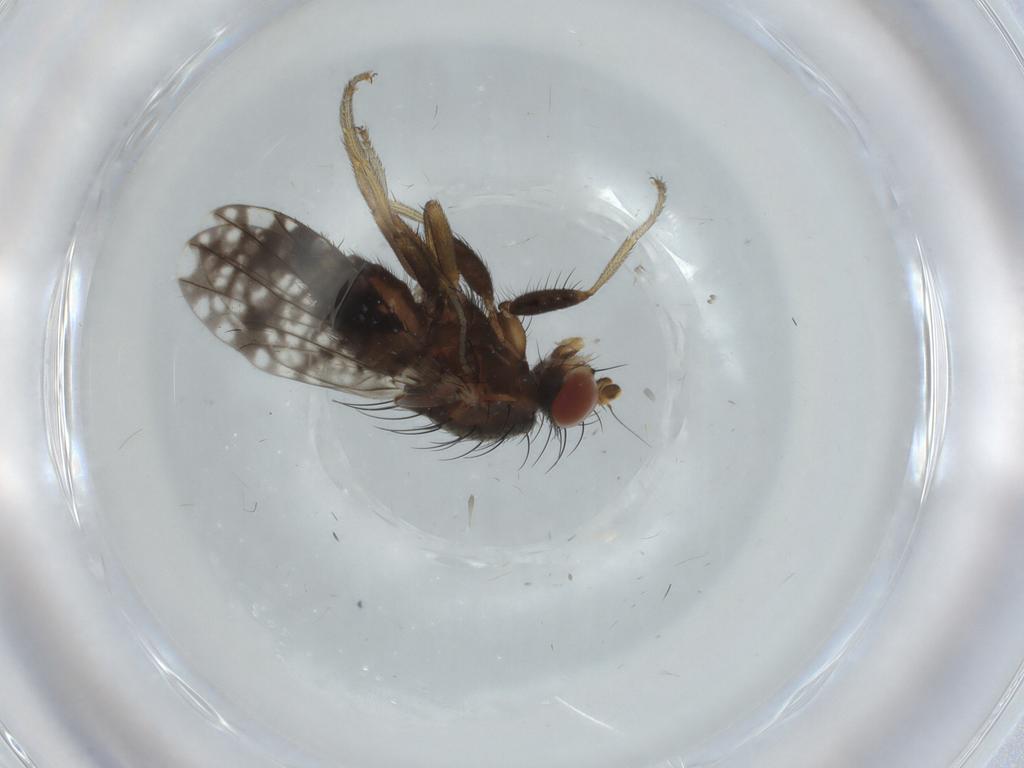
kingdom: Animalia
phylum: Arthropoda
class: Insecta
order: Diptera
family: Tephritidae
